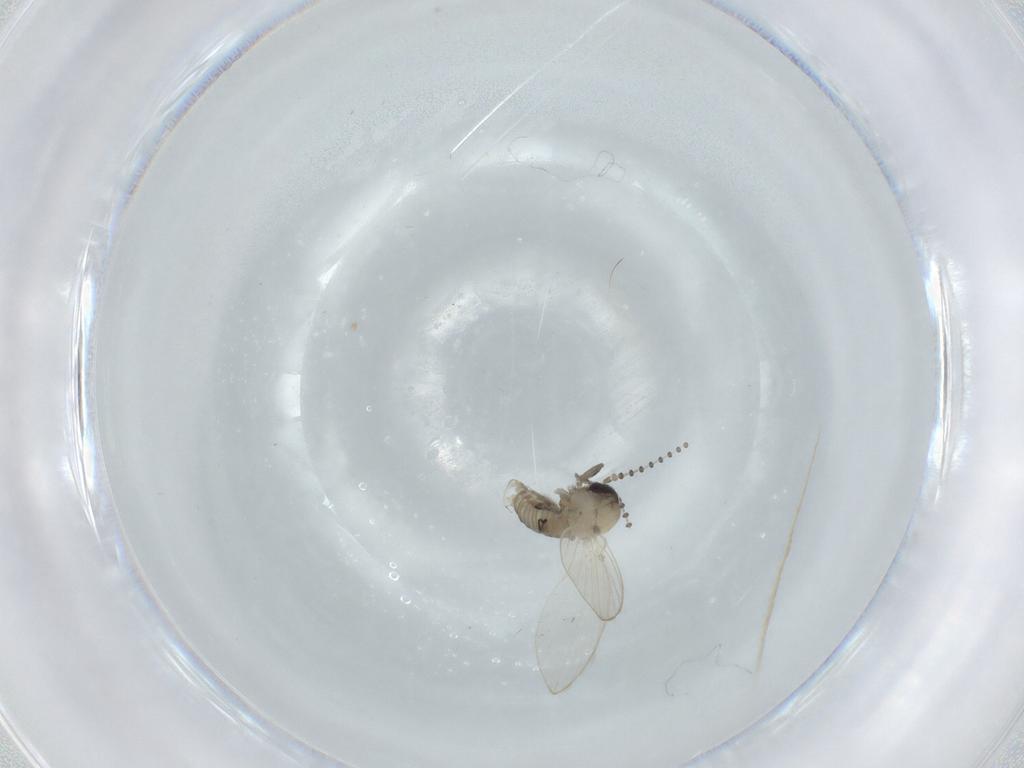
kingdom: Animalia
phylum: Arthropoda
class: Insecta
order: Diptera
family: Psychodidae
